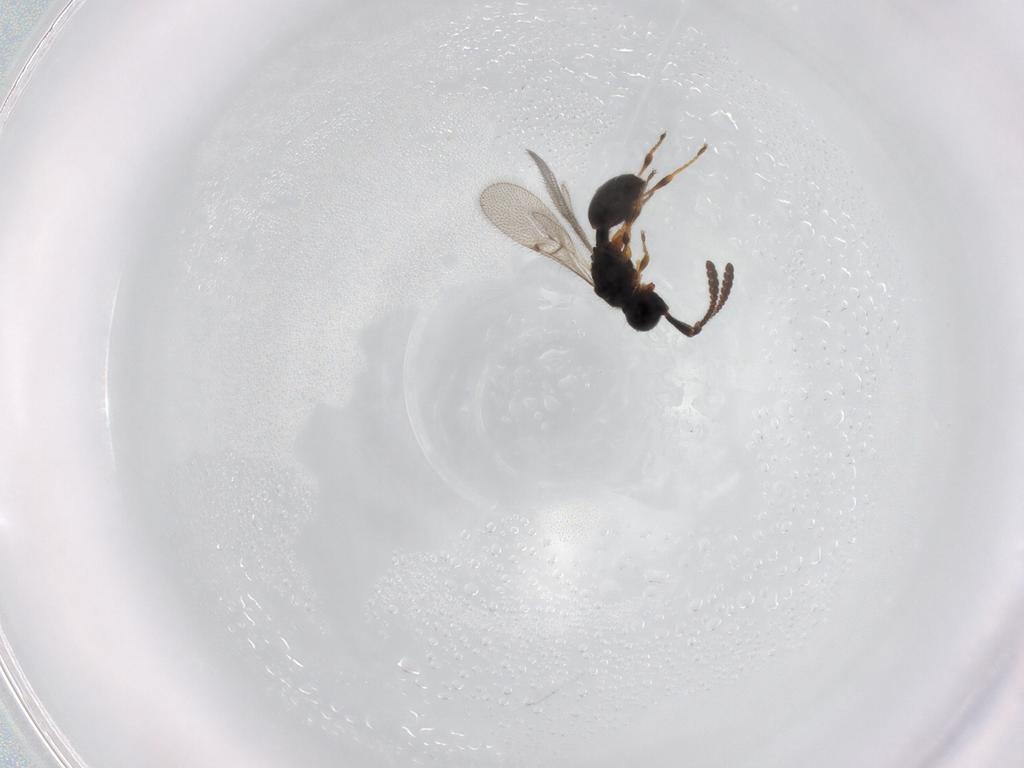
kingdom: Animalia
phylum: Arthropoda
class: Insecta
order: Hymenoptera
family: Diapriidae
